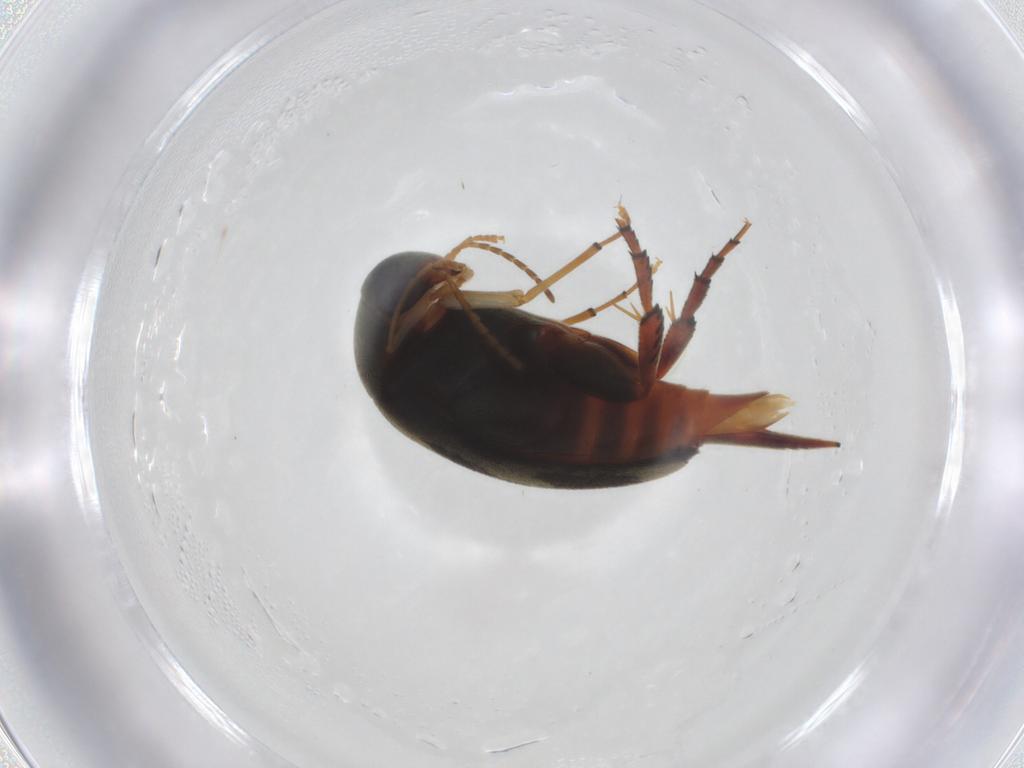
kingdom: Animalia
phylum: Arthropoda
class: Insecta
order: Coleoptera
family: Mordellidae
